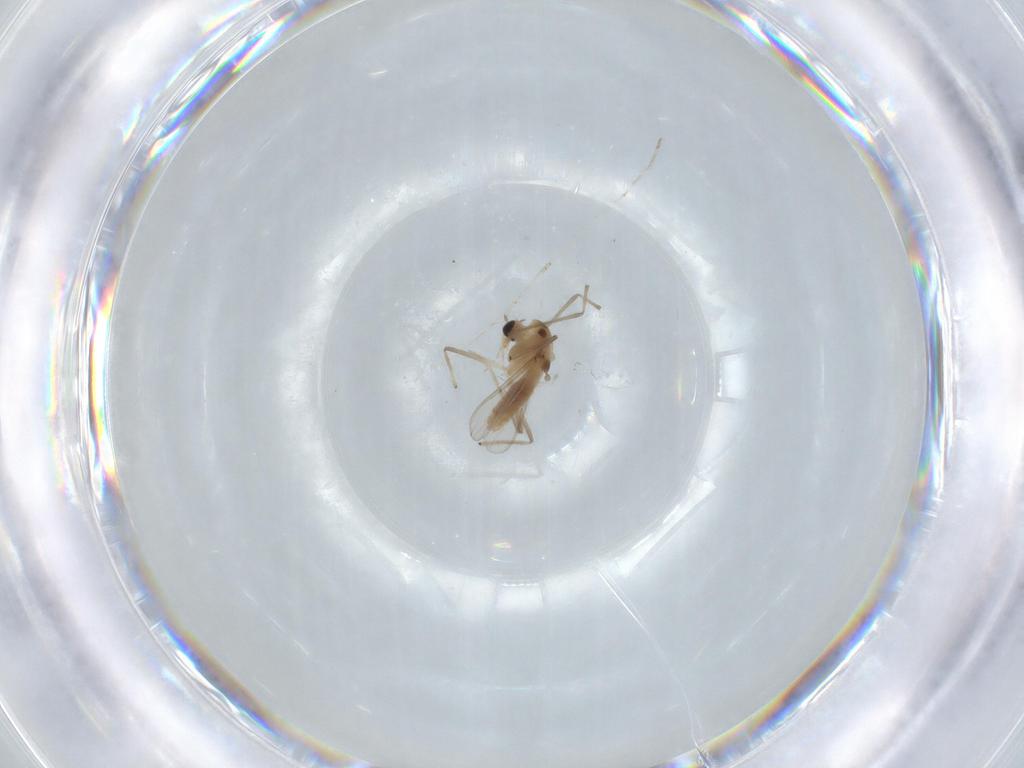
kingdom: Animalia
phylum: Arthropoda
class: Insecta
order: Diptera
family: Chironomidae
